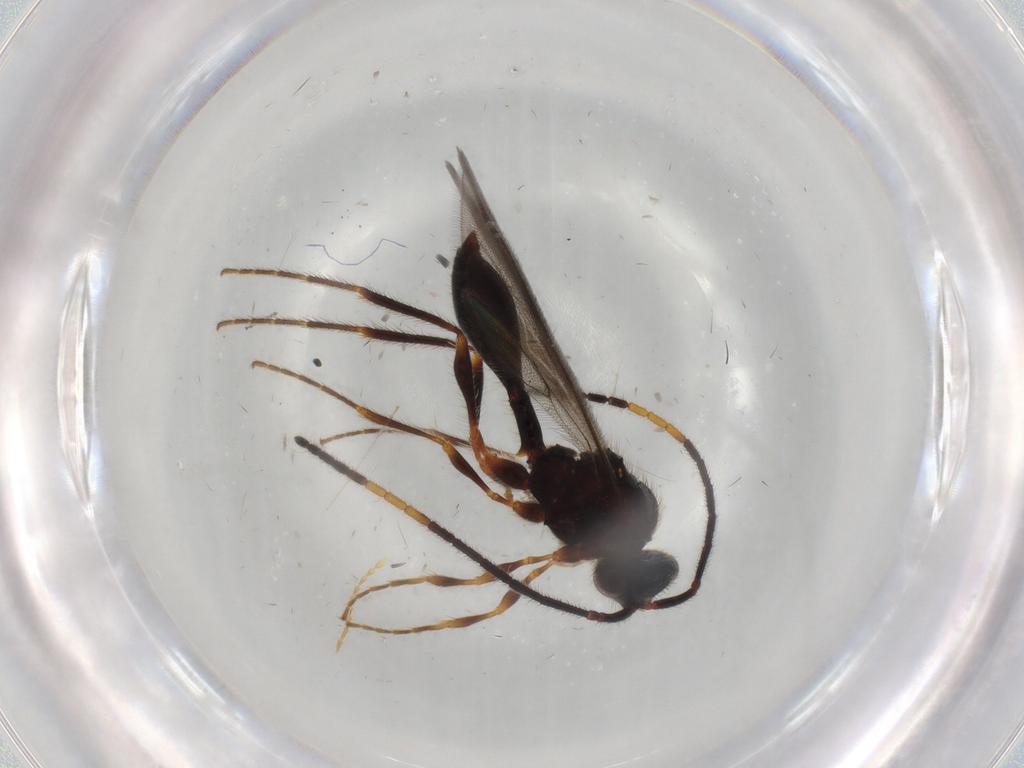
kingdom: Animalia
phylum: Arthropoda
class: Insecta
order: Hymenoptera
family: Diapriidae
